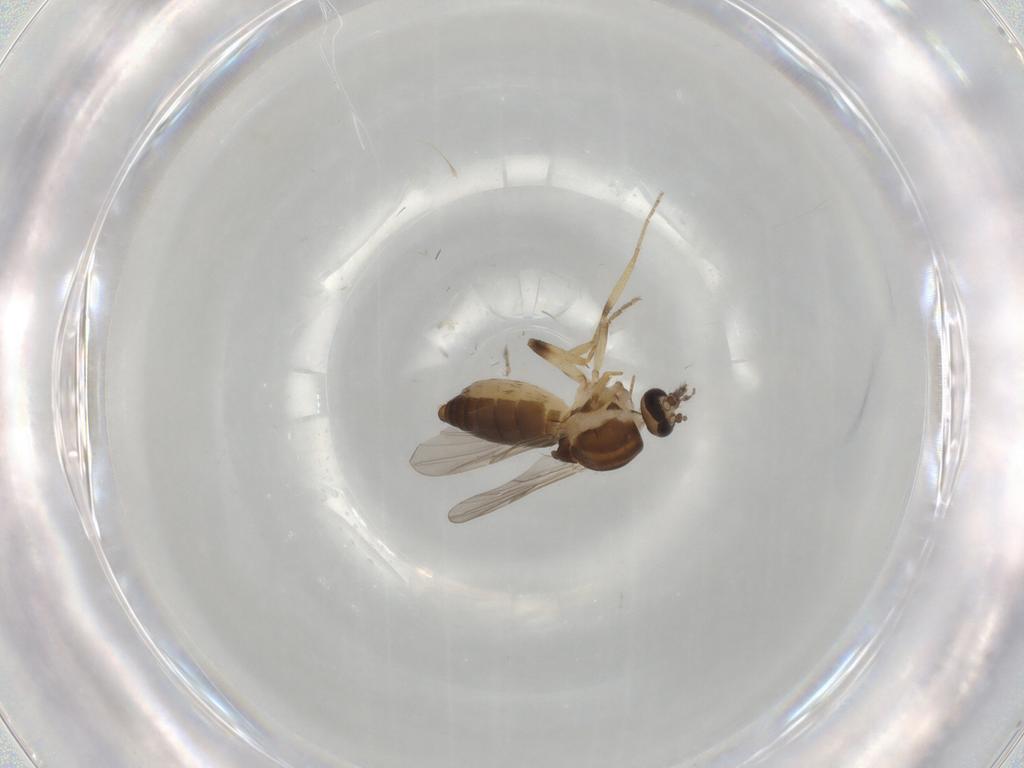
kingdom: Animalia
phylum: Arthropoda
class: Insecta
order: Diptera
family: Ceratopogonidae
